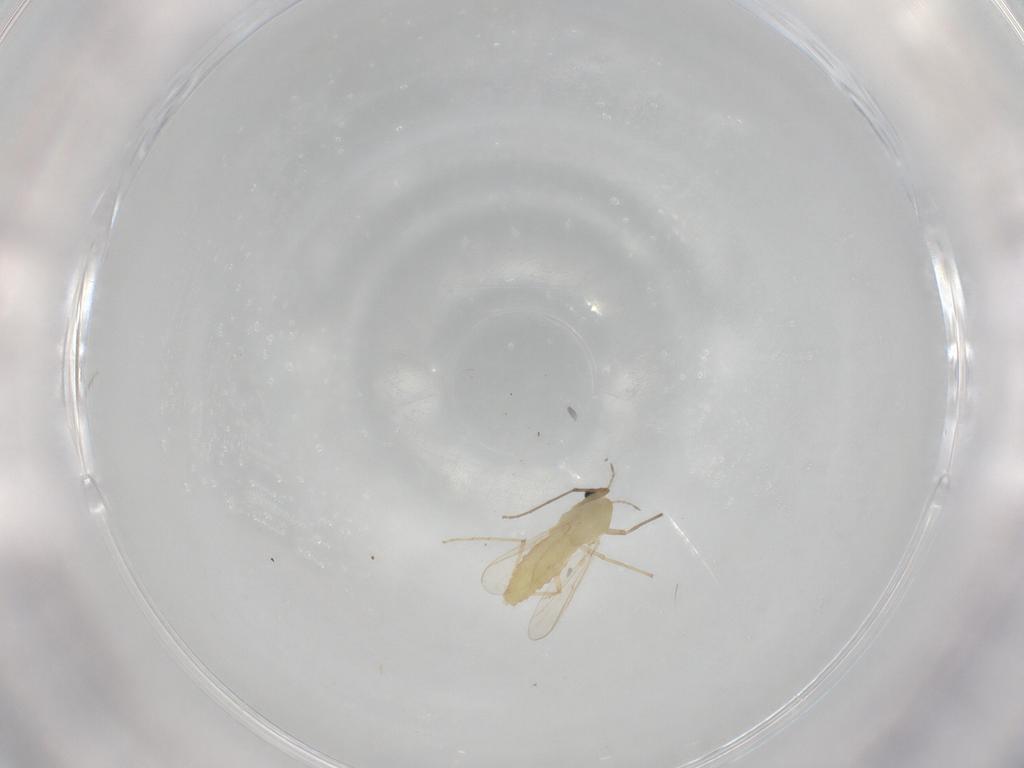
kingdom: Animalia
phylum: Arthropoda
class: Insecta
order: Diptera
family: Chironomidae
